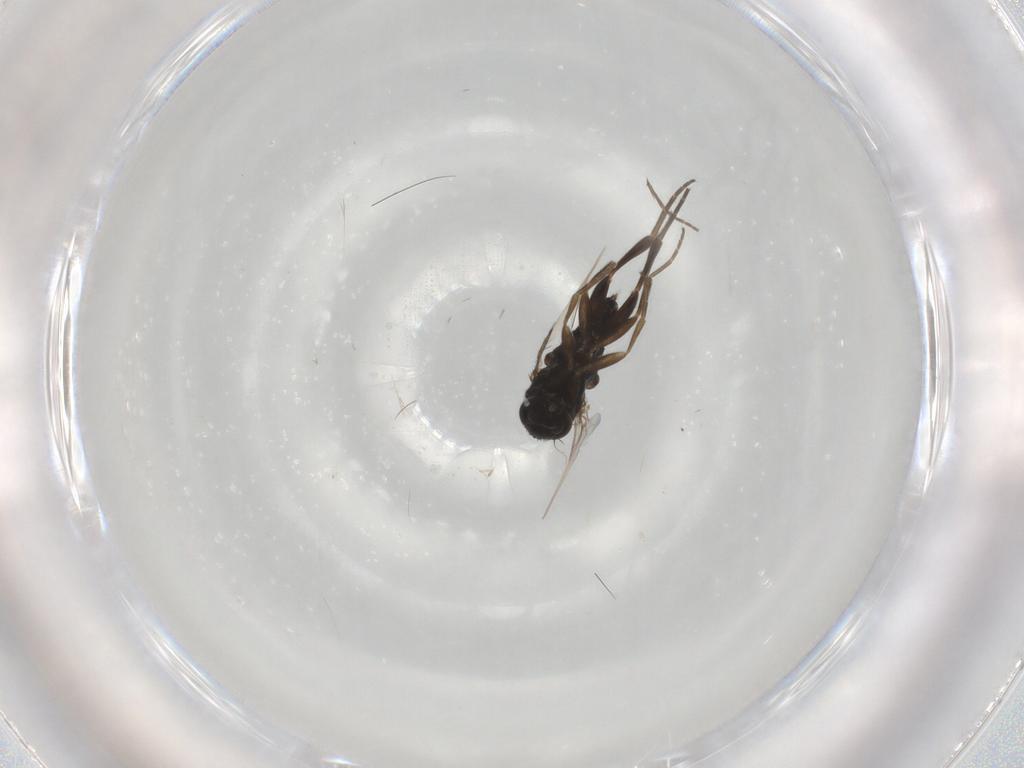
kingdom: Animalia
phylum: Arthropoda
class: Insecta
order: Diptera
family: Phoridae
